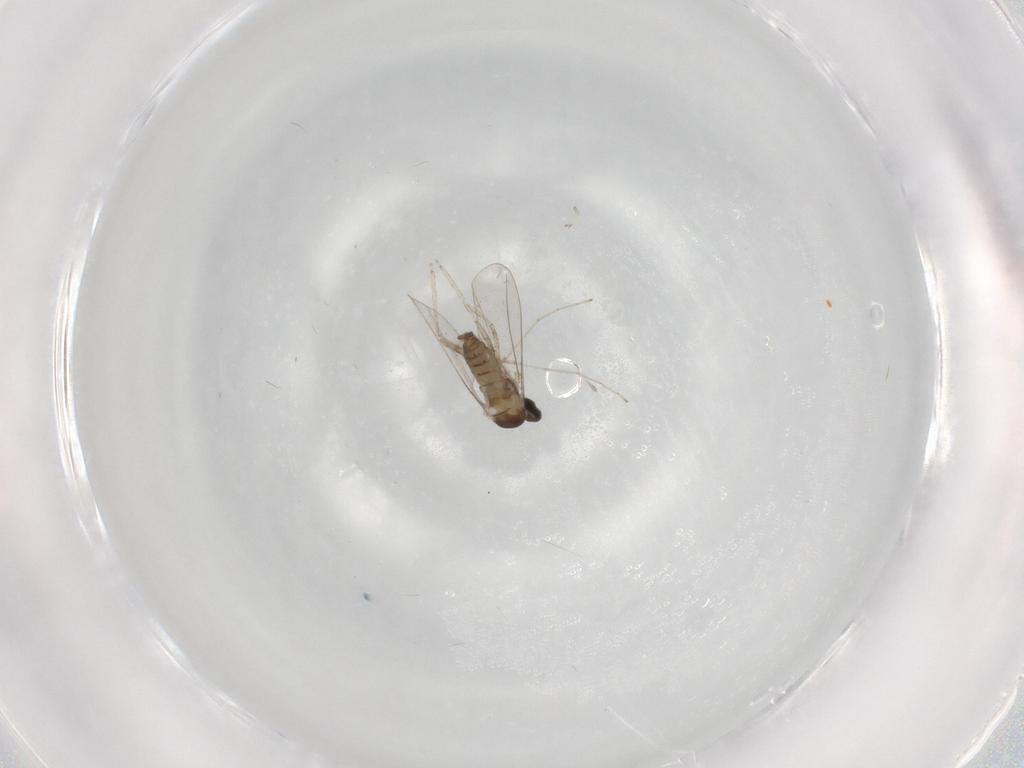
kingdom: Animalia
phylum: Arthropoda
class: Insecta
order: Diptera
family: Cecidomyiidae
